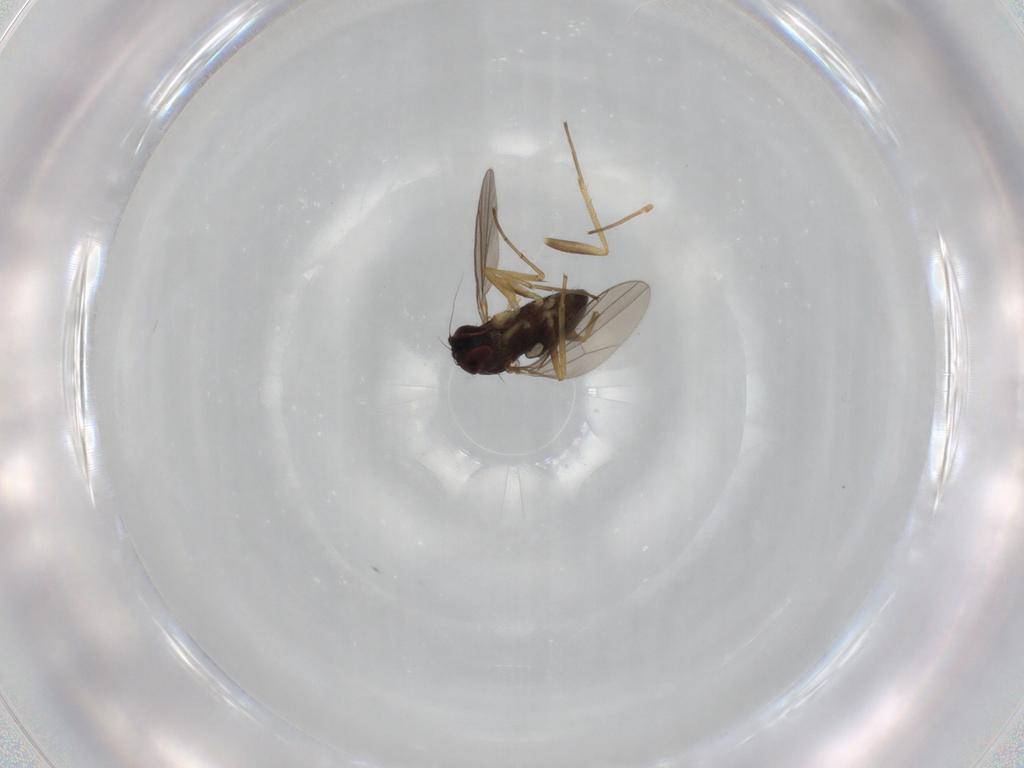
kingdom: Animalia
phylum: Arthropoda
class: Insecta
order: Diptera
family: Dolichopodidae
